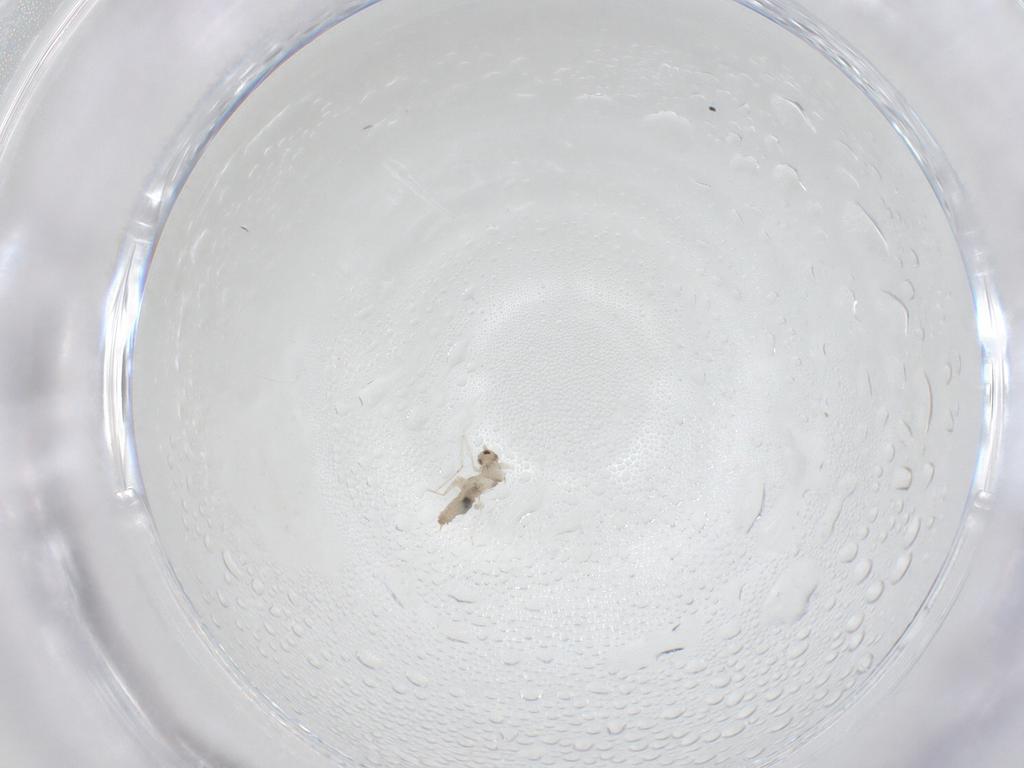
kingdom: Animalia
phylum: Arthropoda
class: Insecta
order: Diptera
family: Cecidomyiidae
